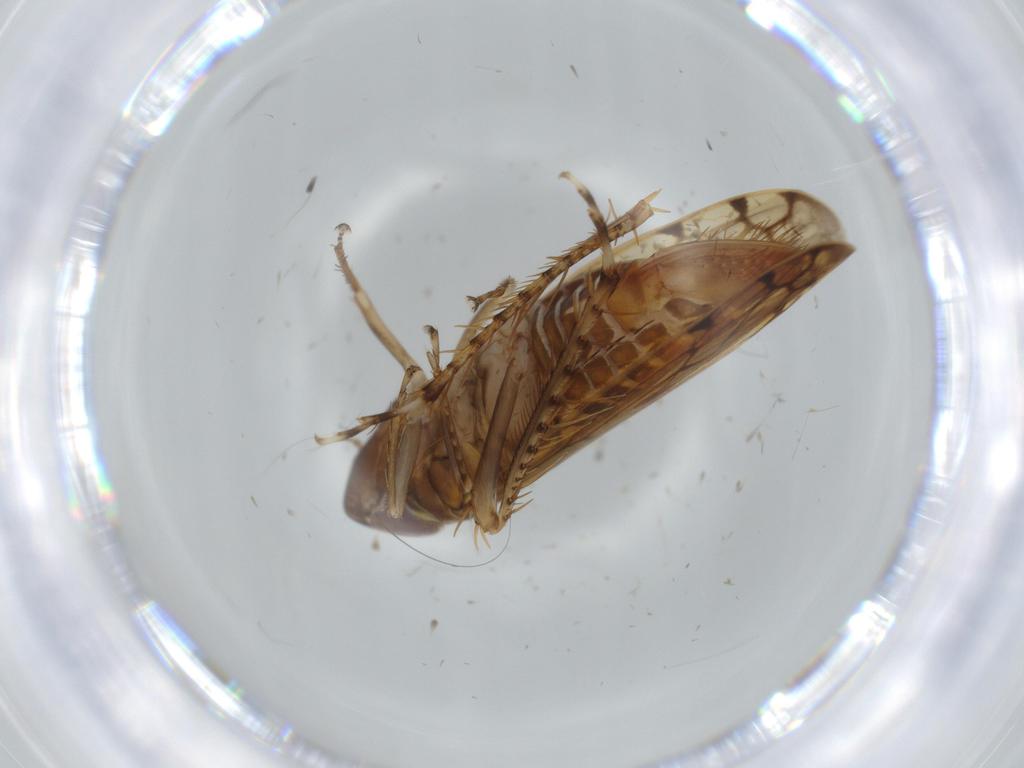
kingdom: Animalia
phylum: Arthropoda
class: Insecta
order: Hemiptera
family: Cicadellidae
